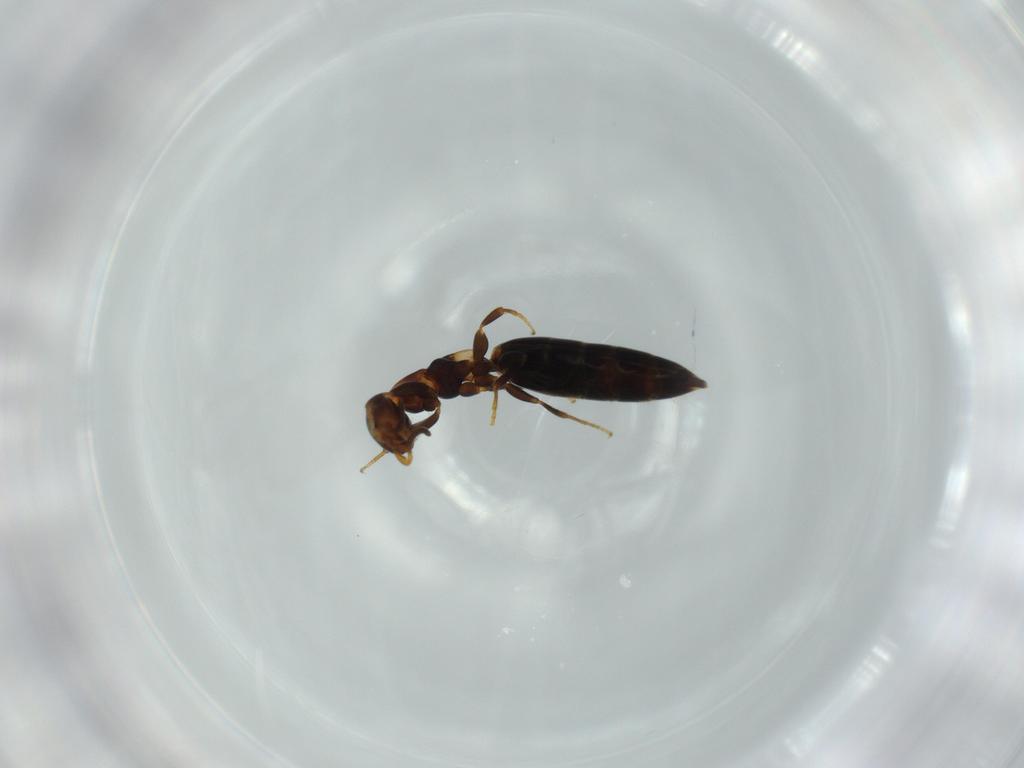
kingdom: Animalia
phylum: Arthropoda
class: Insecta
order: Hymenoptera
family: Bethylidae
